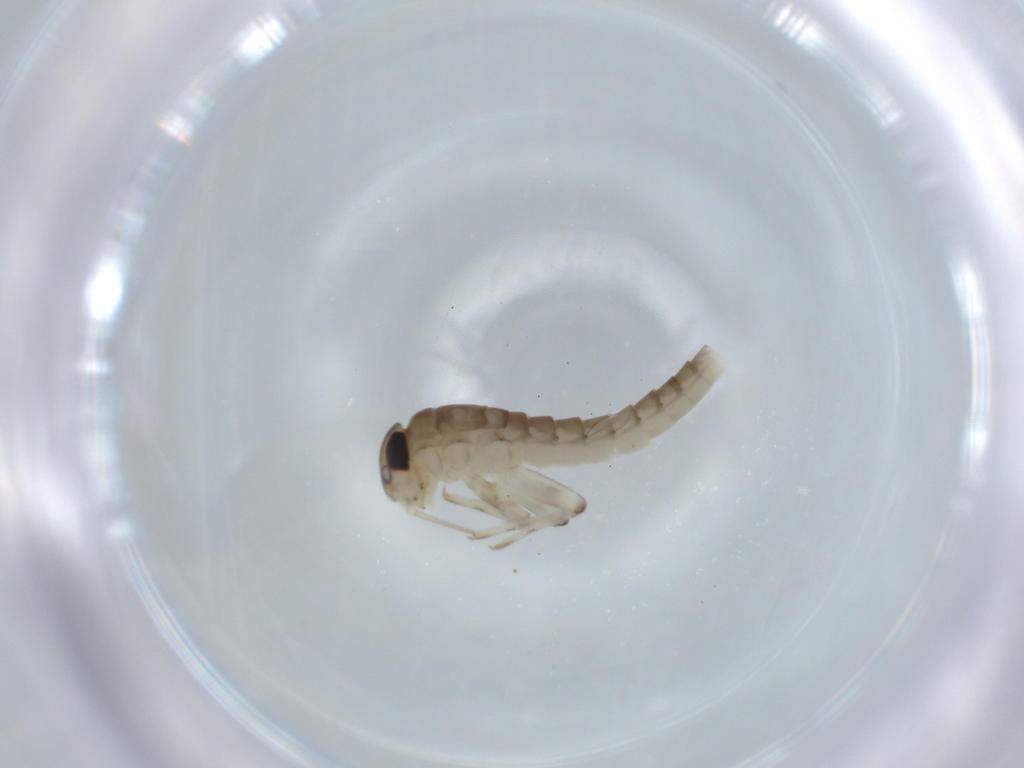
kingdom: Animalia
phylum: Arthropoda
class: Insecta
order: Ephemeroptera
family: Baetidae
